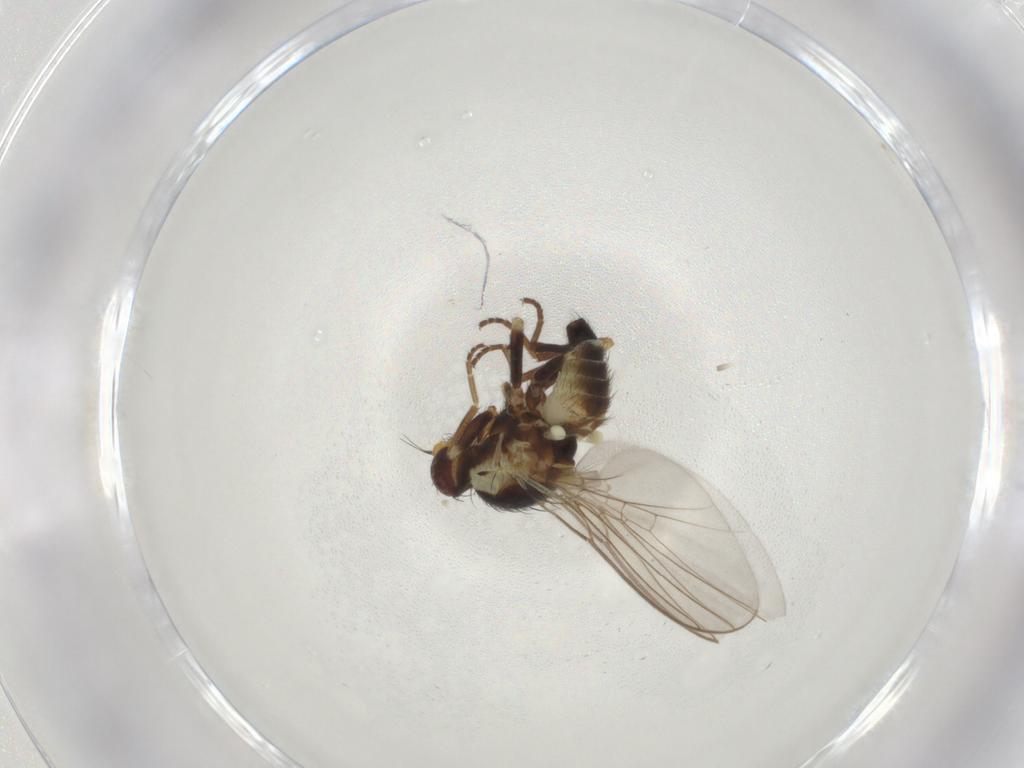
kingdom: Animalia
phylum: Arthropoda
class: Insecta
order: Diptera
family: Agromyzidae
